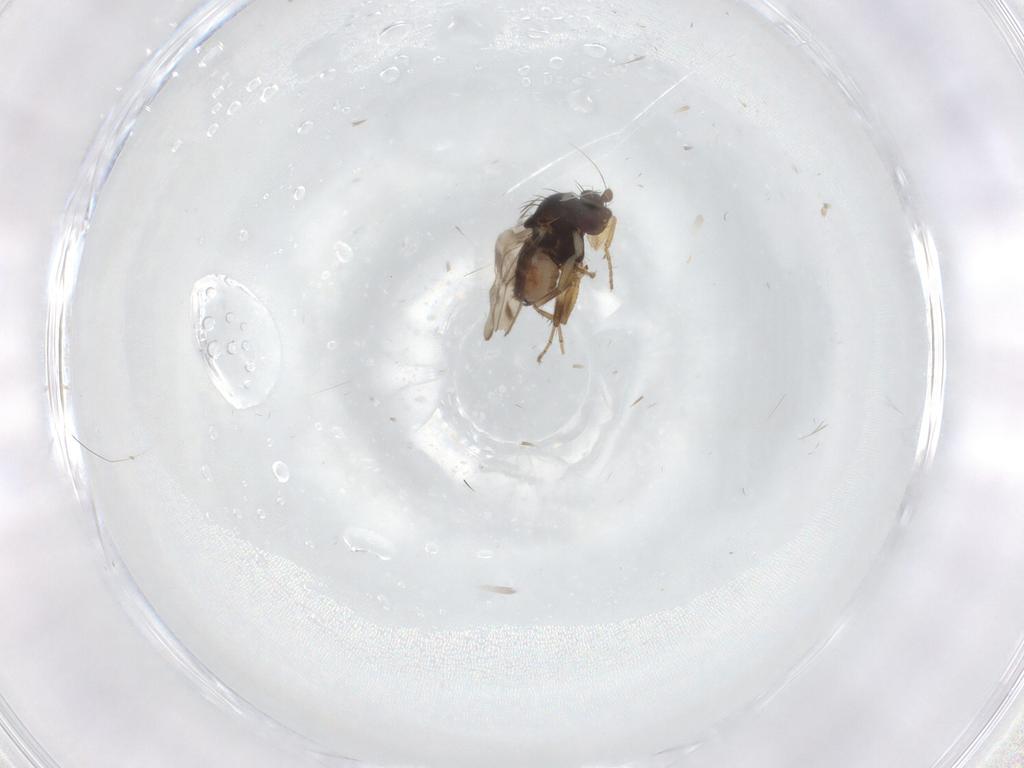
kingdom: Animalia
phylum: Arthropoda
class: Insecta
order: Diptera
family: Sphaeroceridae
